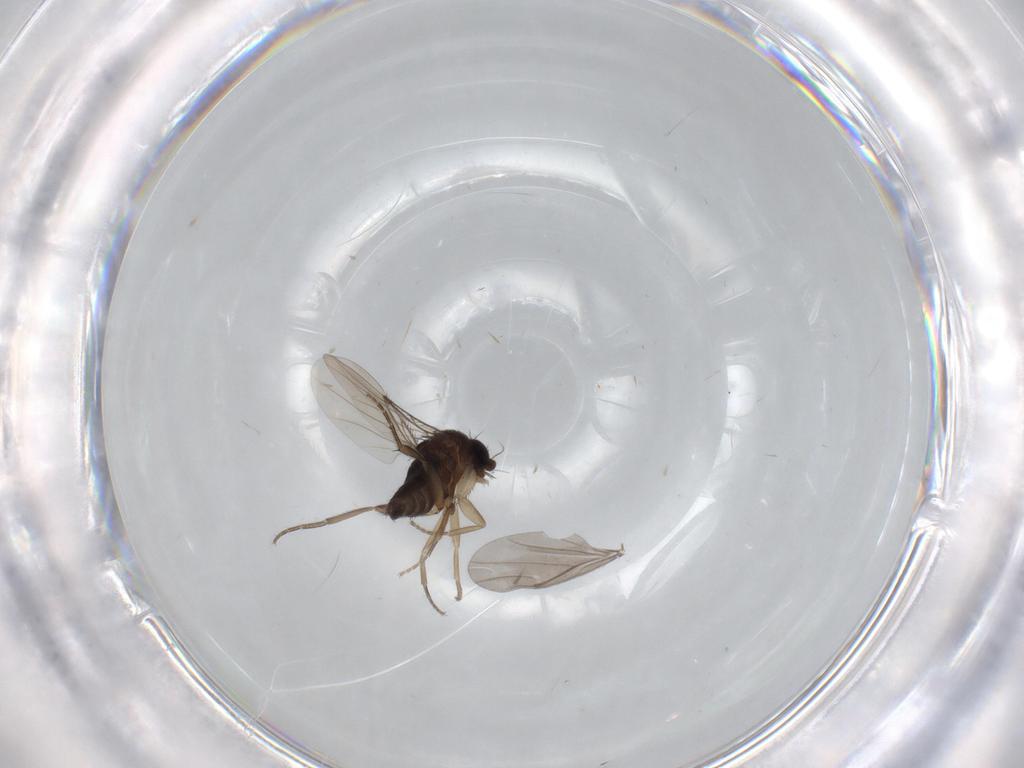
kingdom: Animalia
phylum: Arthropoda
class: Insecta
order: Diptera
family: Phoridae
